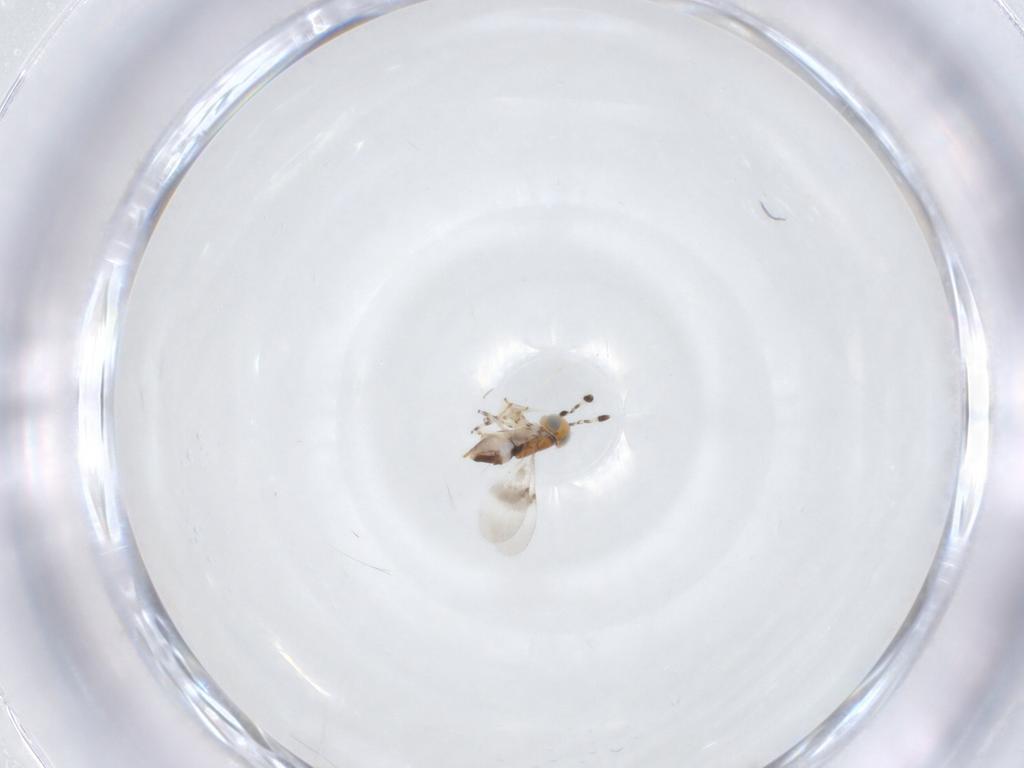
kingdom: Animalia
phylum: Arthropoda
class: Insecta
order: Hymenoptera
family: Encyrtidae
